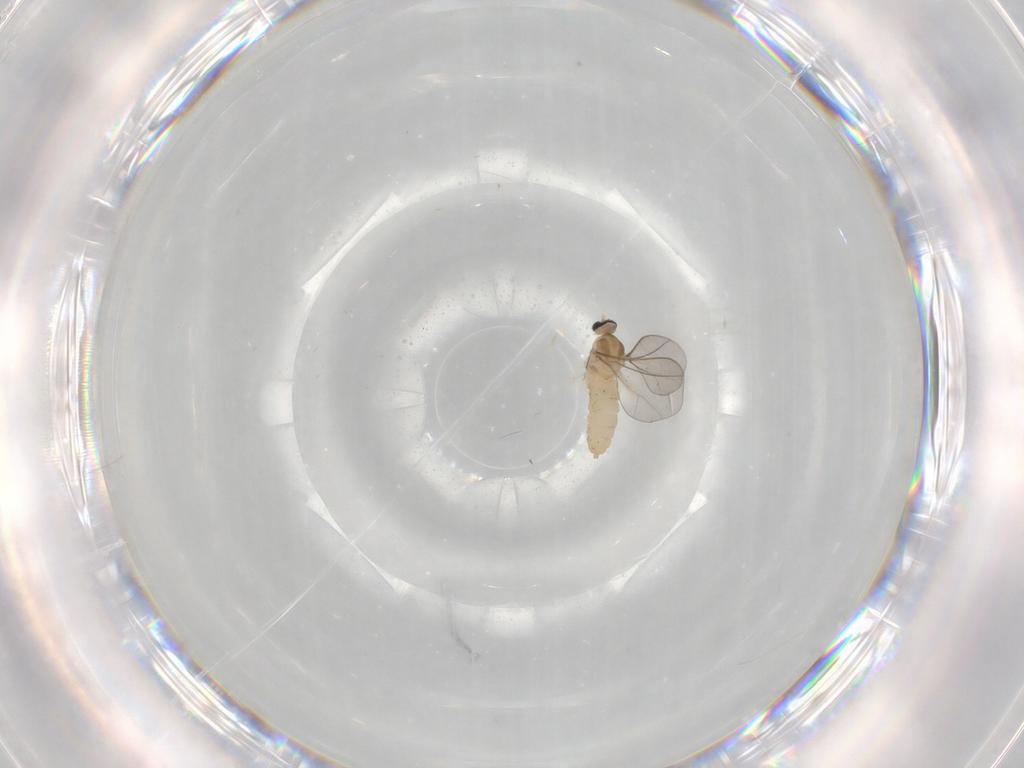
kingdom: Animalia
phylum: Arthropoda
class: Insecta
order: Diptera
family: Cecidomyiidae
